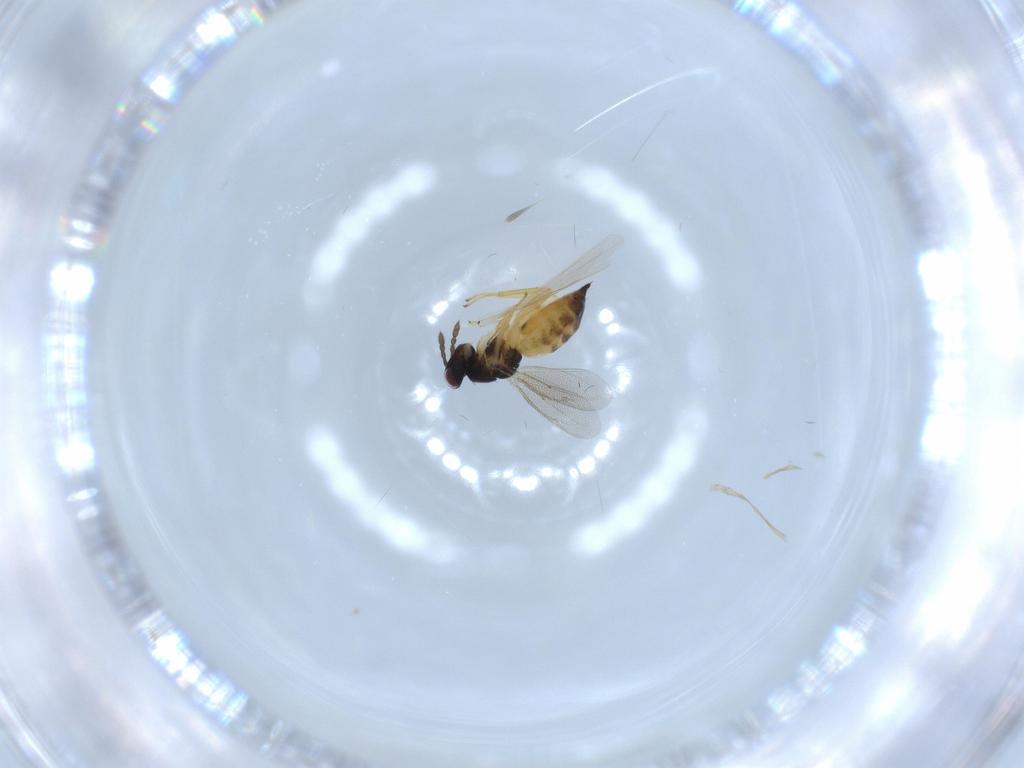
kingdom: Animalia
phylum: Arthropoda
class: Insecta
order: Hymenoptera
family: Eulophidae
